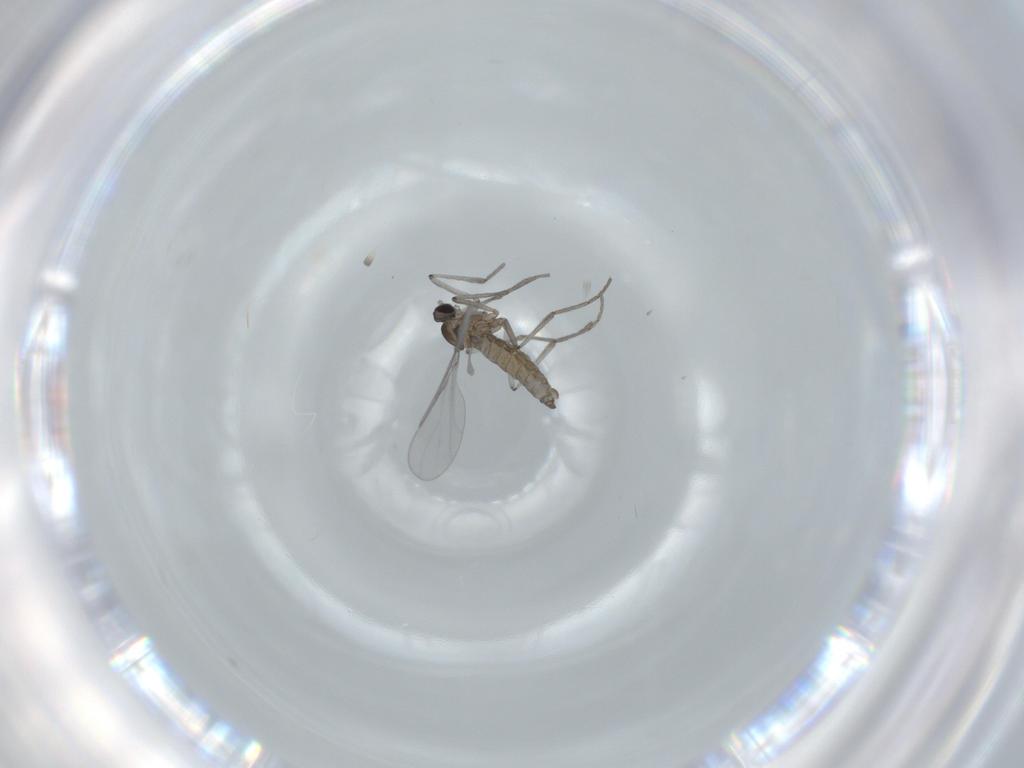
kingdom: Animalia
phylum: Arthropoda
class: Insecta
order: Diptera
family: Cecidomyiidae
